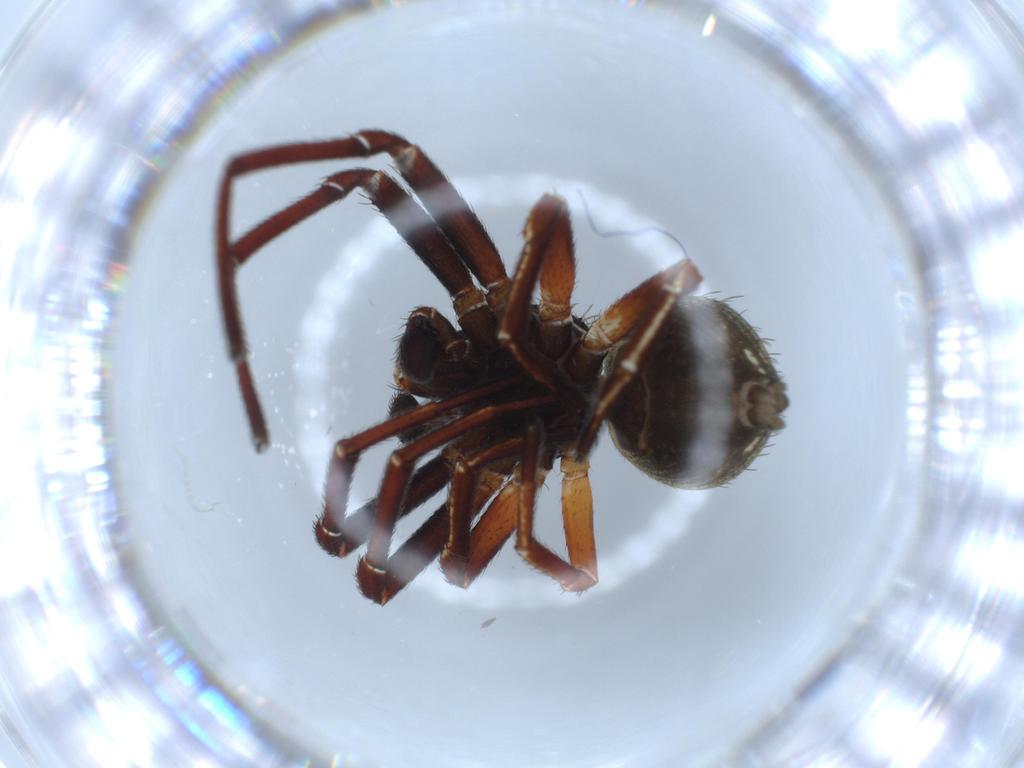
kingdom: Animalia
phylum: Arthropoda
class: Arachnida
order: Araneae
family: Thomisidae
